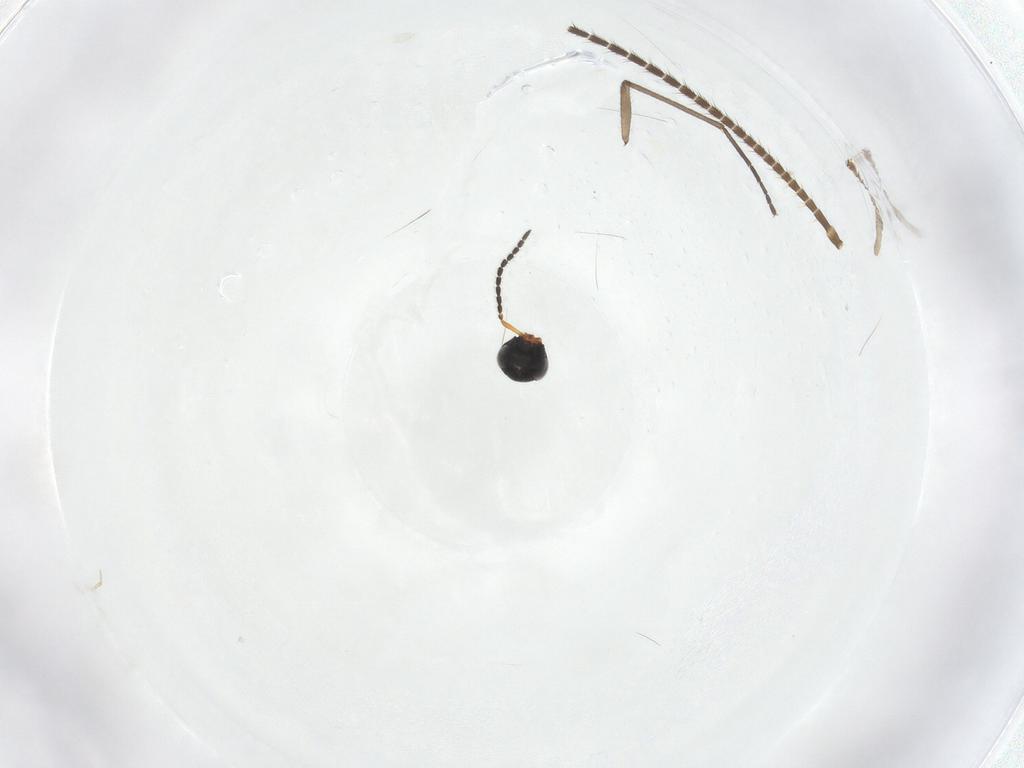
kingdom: Animalia
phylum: Arthropoda
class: Insecta
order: Blattodea
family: Ectobiidae
